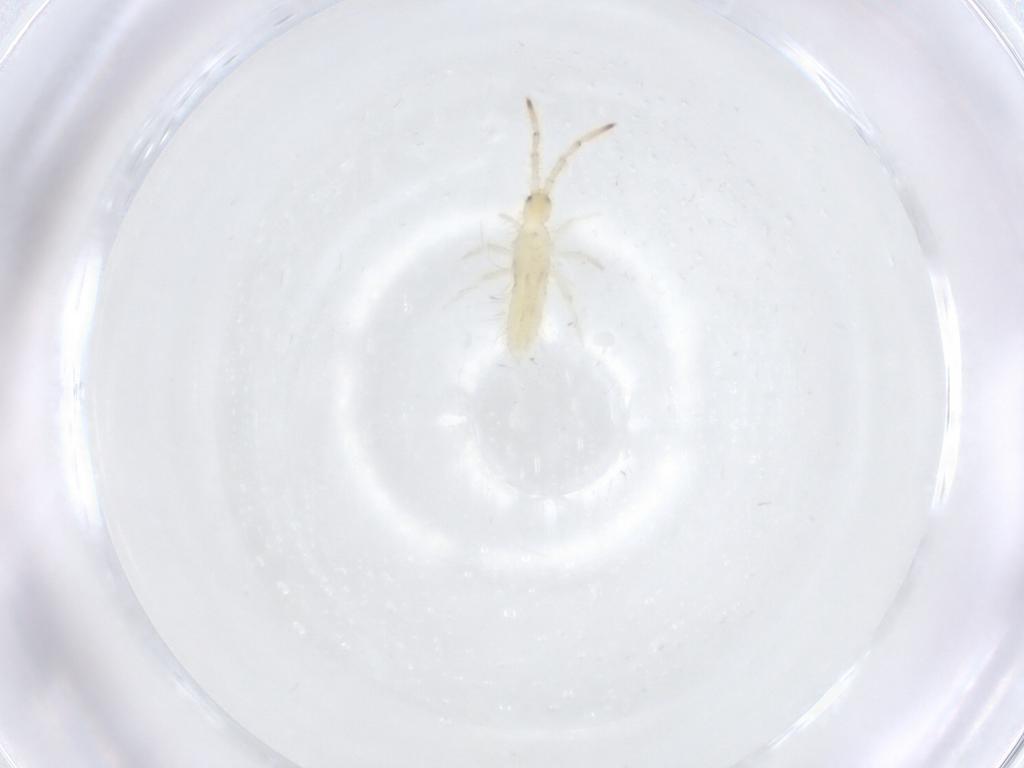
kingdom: Animalia
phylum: Arthropoda
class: Collembola
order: Entomobryomorpha
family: Entomobryidae
